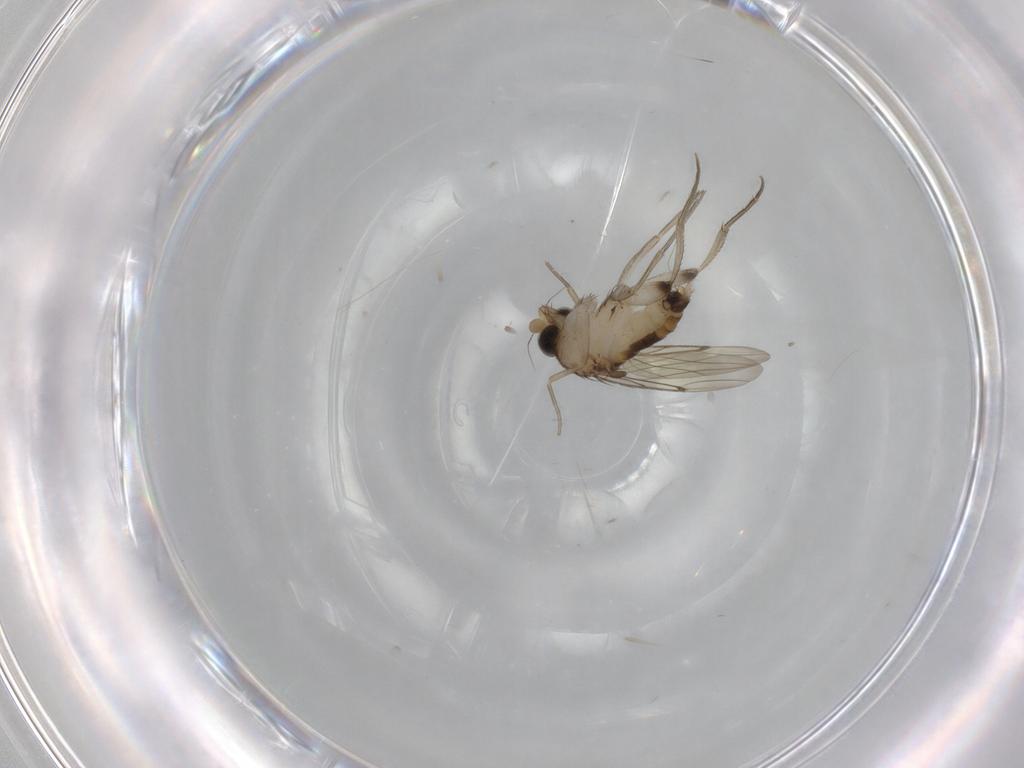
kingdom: Animalia
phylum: Arthropoda
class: Insecta
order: Diptera
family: Phoridae
